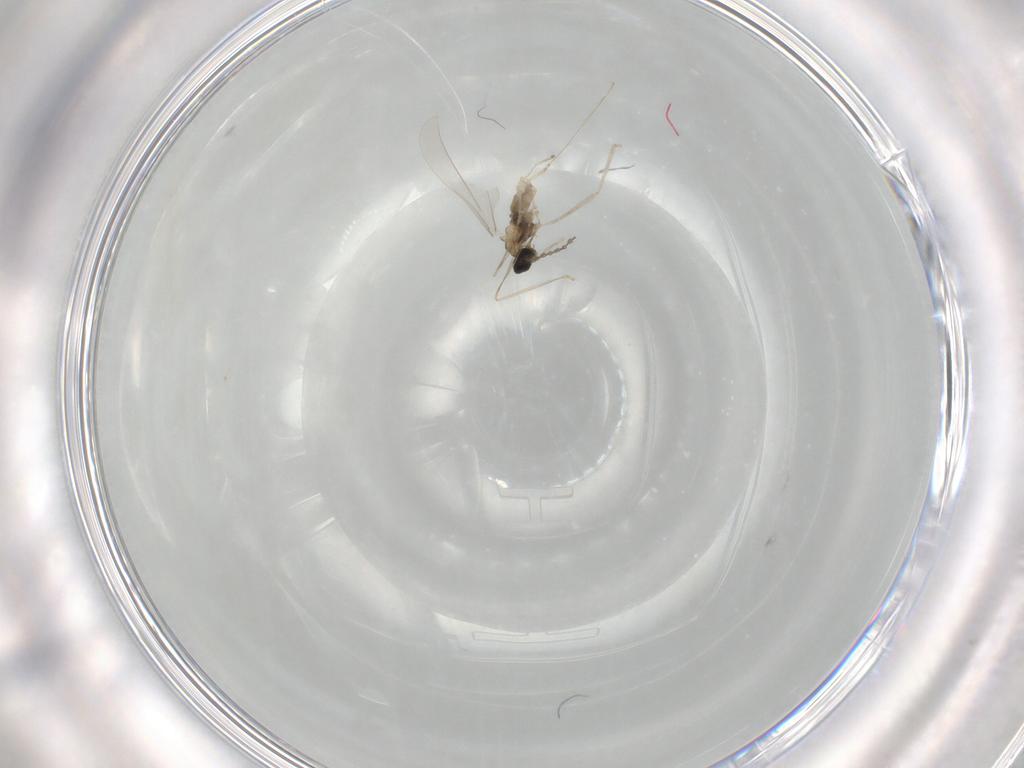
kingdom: Animalia
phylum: Arthropoda
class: Insecta
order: Diptera
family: Cecidomyiidae
